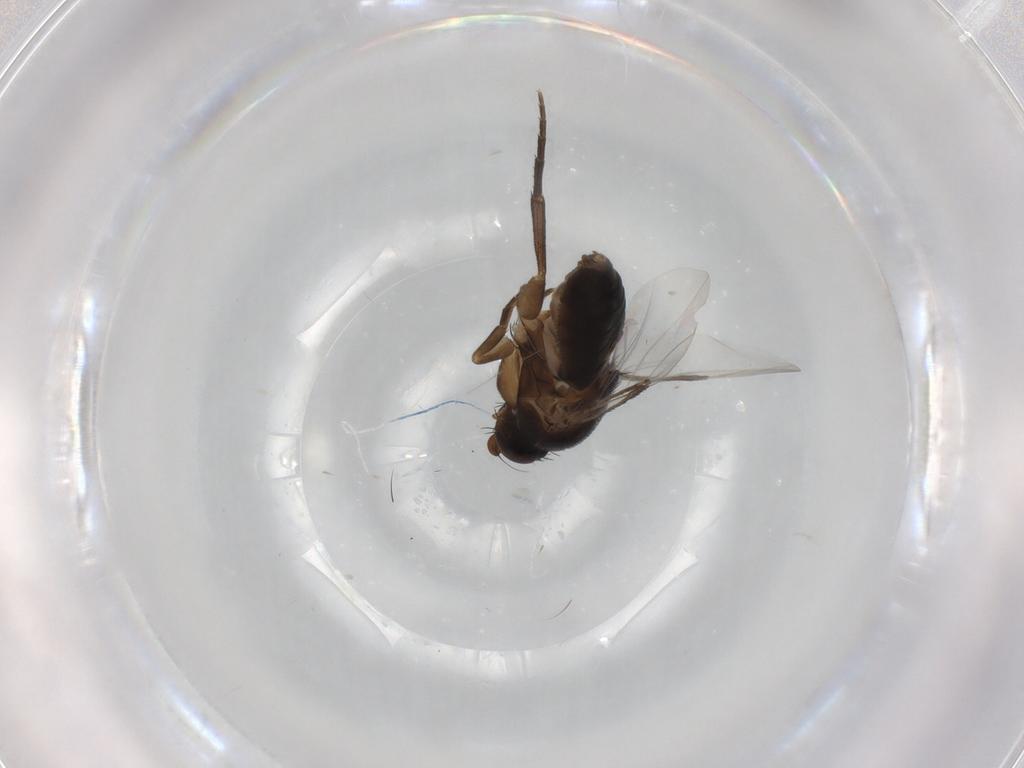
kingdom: Animalia
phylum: Arthropoda
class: Insecta
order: Diptera
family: Phoridae
